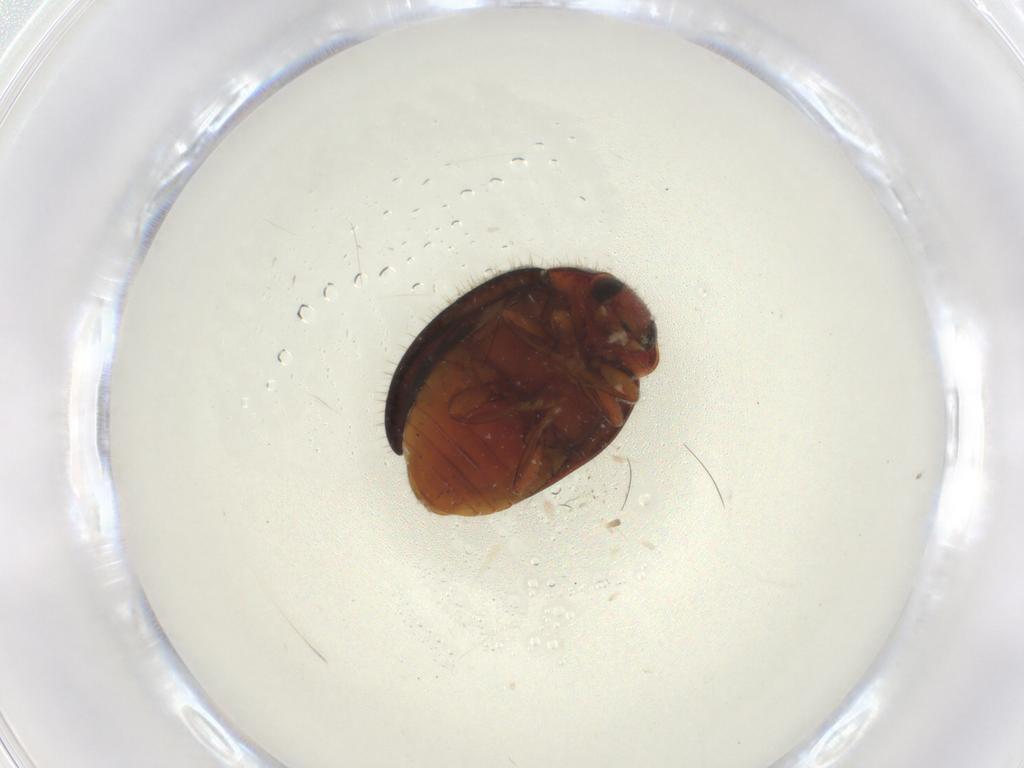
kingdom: Animalia
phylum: Arthropoda
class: Insecta
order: Coleoptera
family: Coccinellidae
